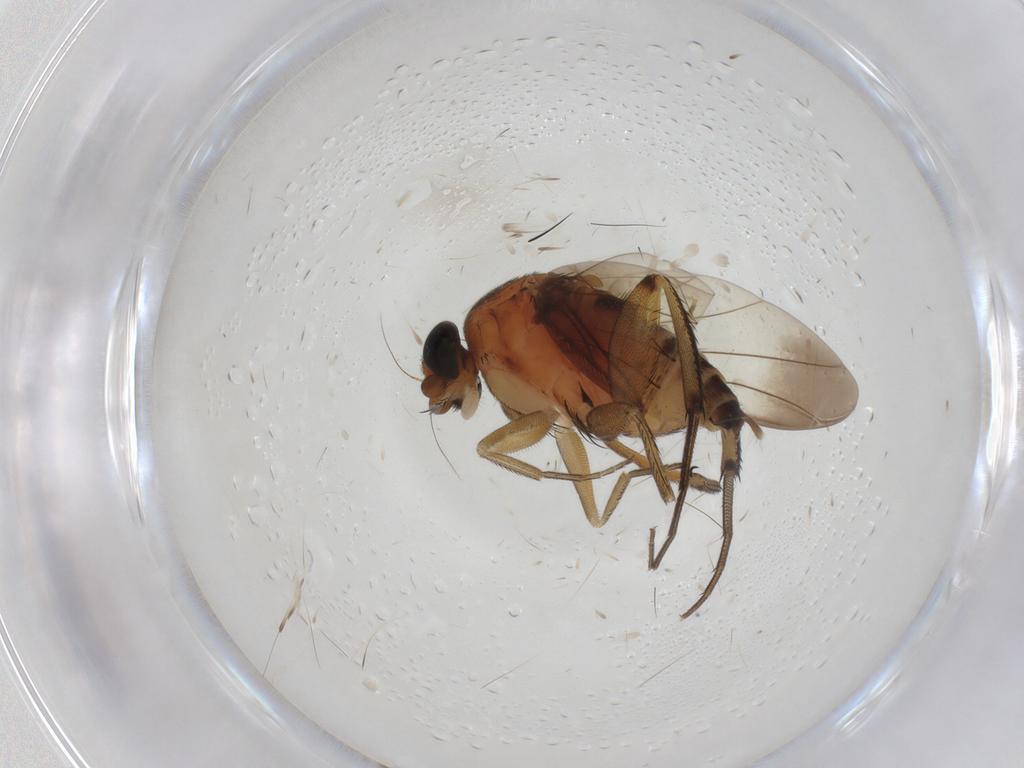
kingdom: Animalia
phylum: Arthropoda
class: Insecta
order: Diptera
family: Phoridae
